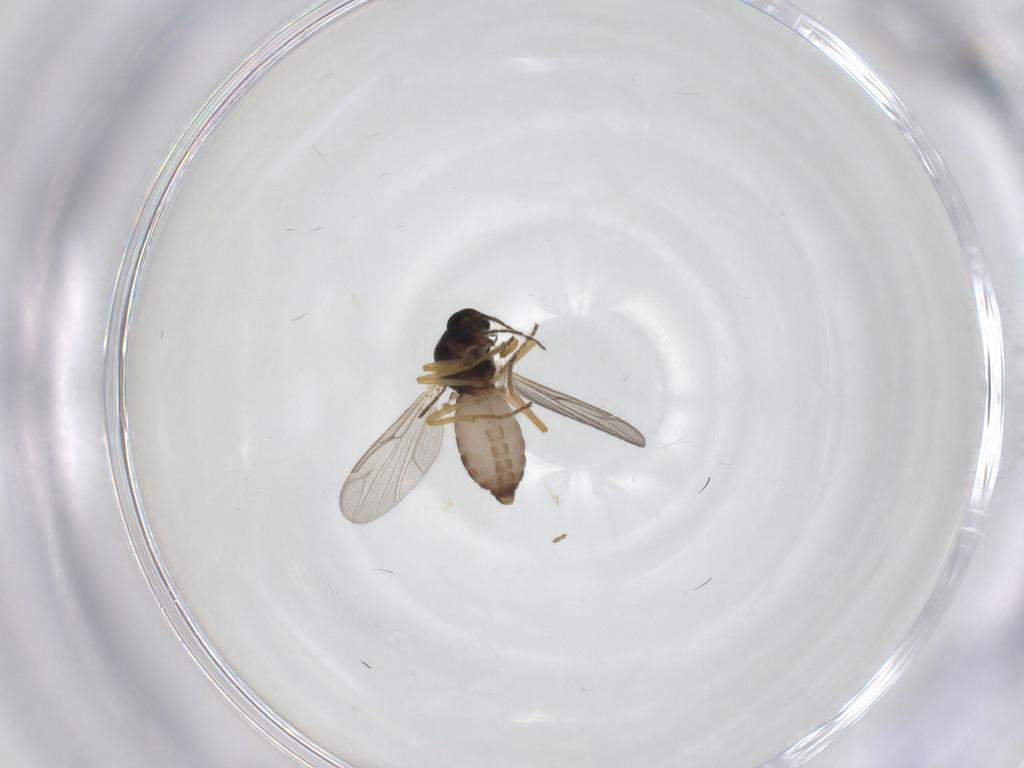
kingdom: Animalia
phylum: Arthropoda
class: Insecta
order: Diptera
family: Ceratopogonidae
